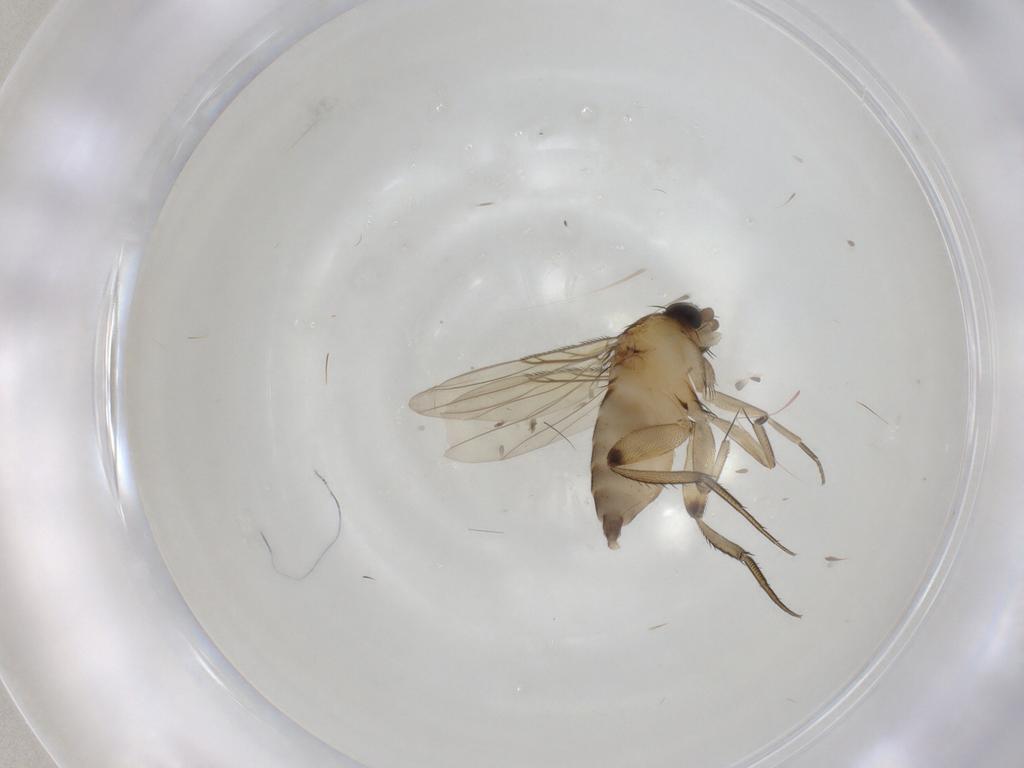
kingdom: Animalia
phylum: Arthropoda
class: Insecta
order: Diptera
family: Phoridae
